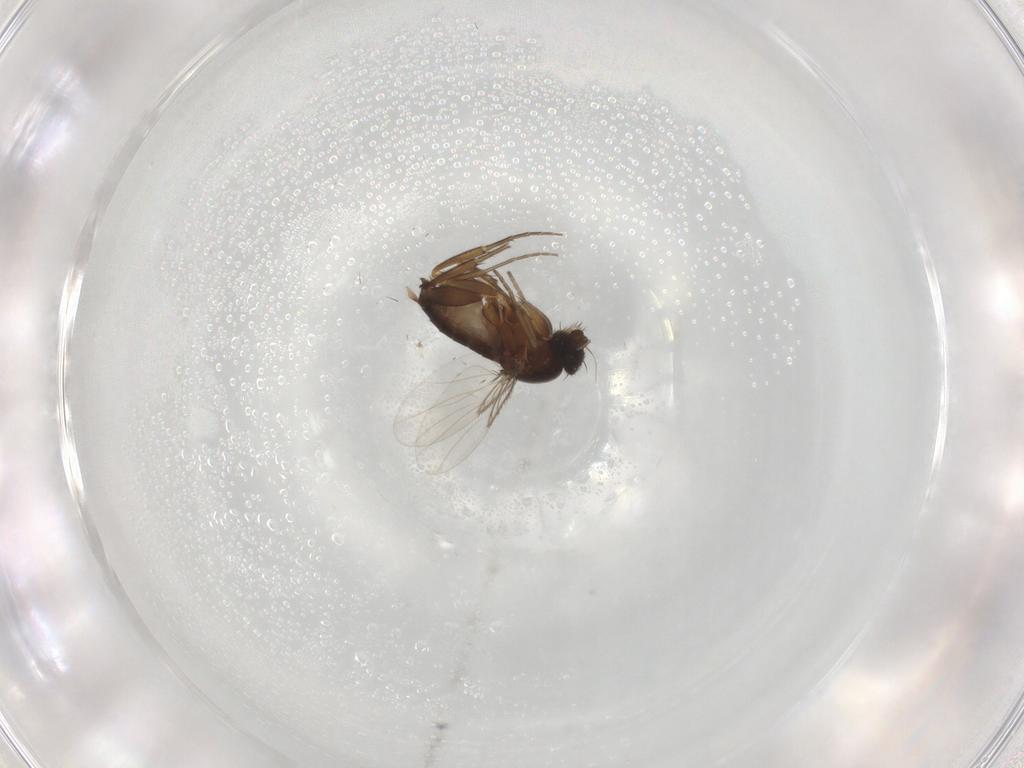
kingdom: Animalia
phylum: Arthropoda
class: Insecta
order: Diptera
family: Phoridae
